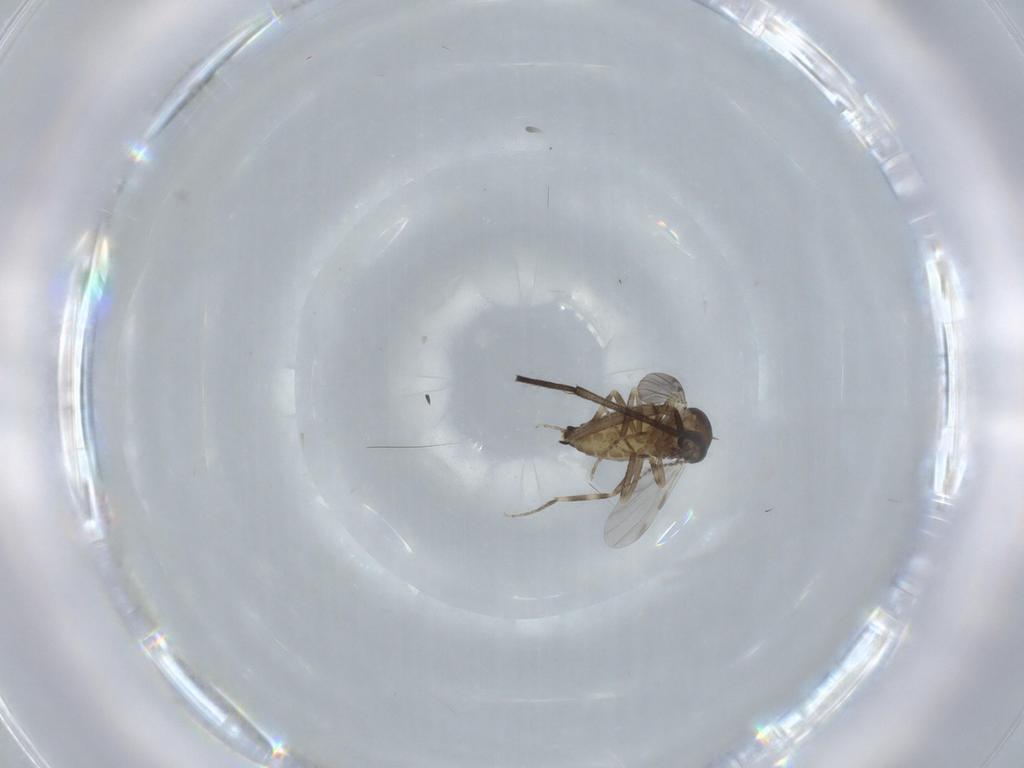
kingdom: Animalia
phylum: Arthropoda
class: Insecta
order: Diptera
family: Ceratopogonidae
